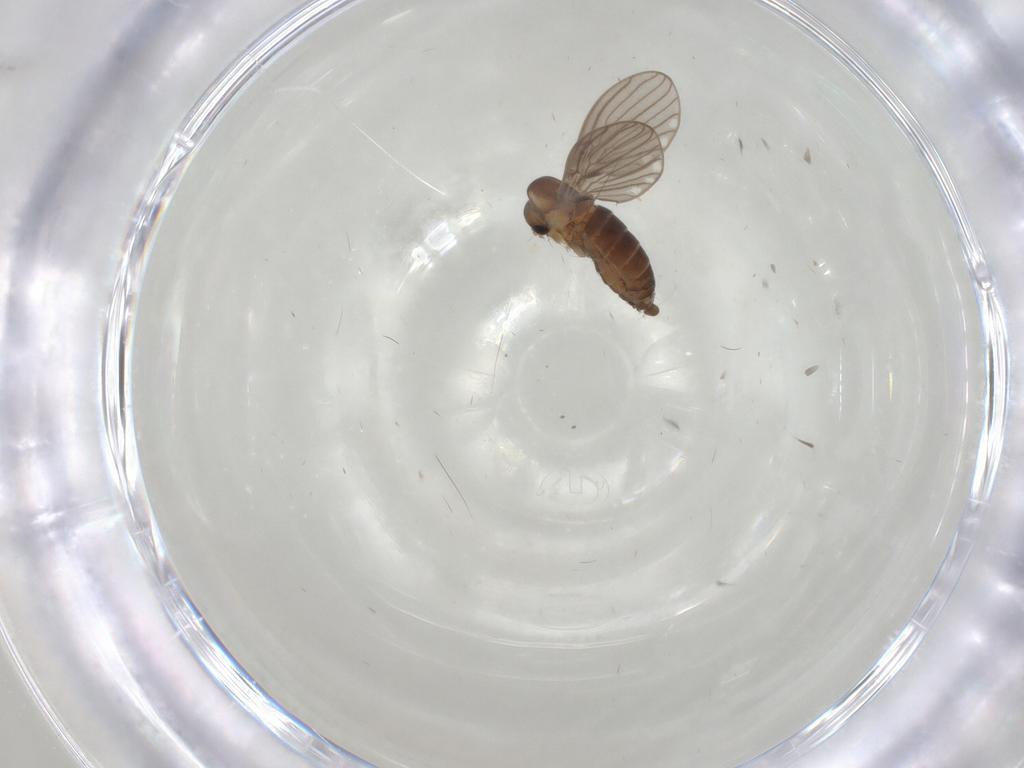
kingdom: Animalia
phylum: Arthropoda
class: Insecta
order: Diptera
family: Psychodidae
